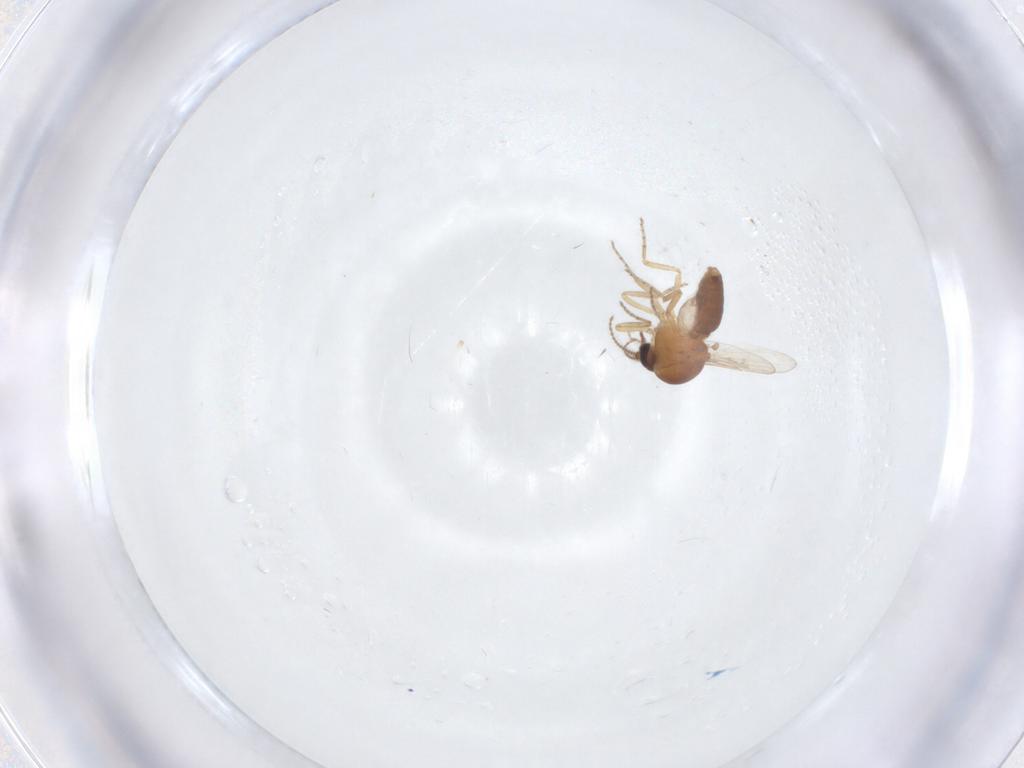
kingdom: Animalia
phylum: Arthropoda
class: Insecta
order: Diptera
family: Ceratopogonidae
